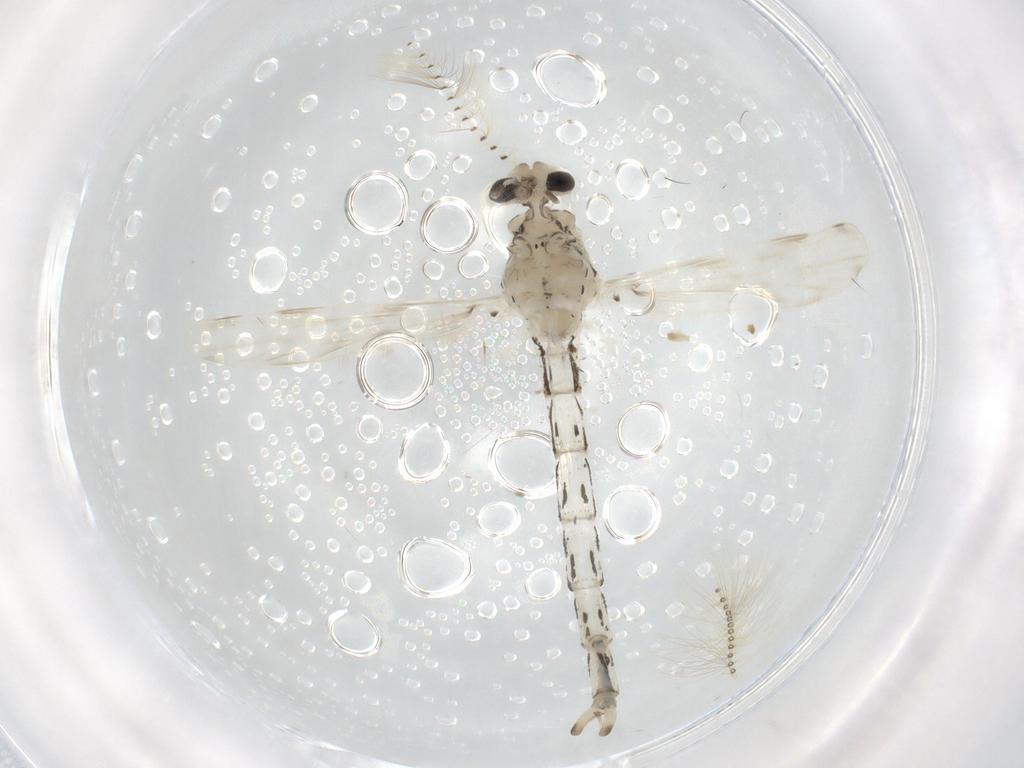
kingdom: Animalia
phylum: Arthropoda
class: Insecta
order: Diptera
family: Chaoboridae
